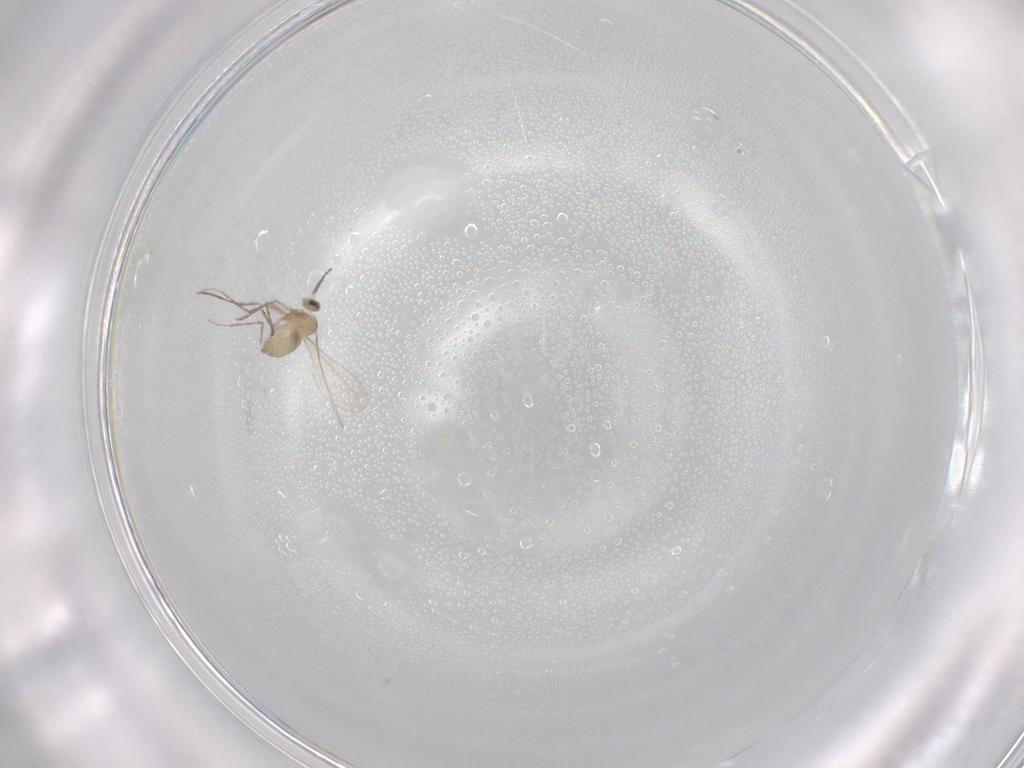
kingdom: Animalia
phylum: Arthropoda
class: Insecta
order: Diptera
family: Cecidomyiidae
